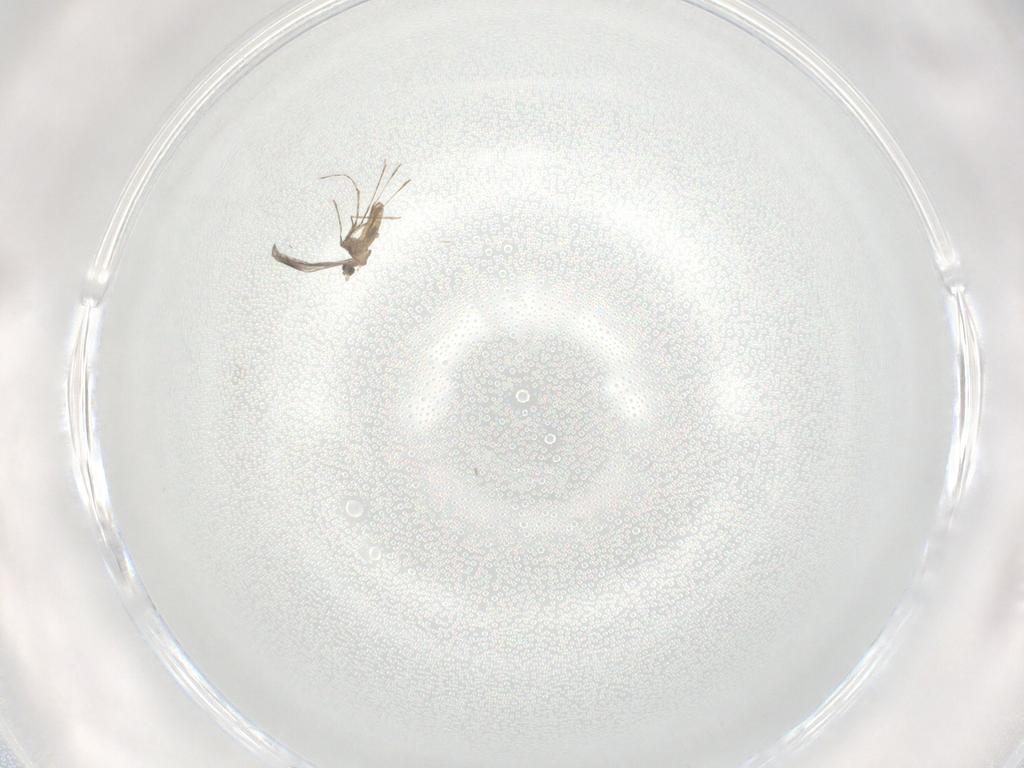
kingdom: Animalia
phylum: Arthropoda
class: Insecta
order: Diptera
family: Cecidomyiidae
